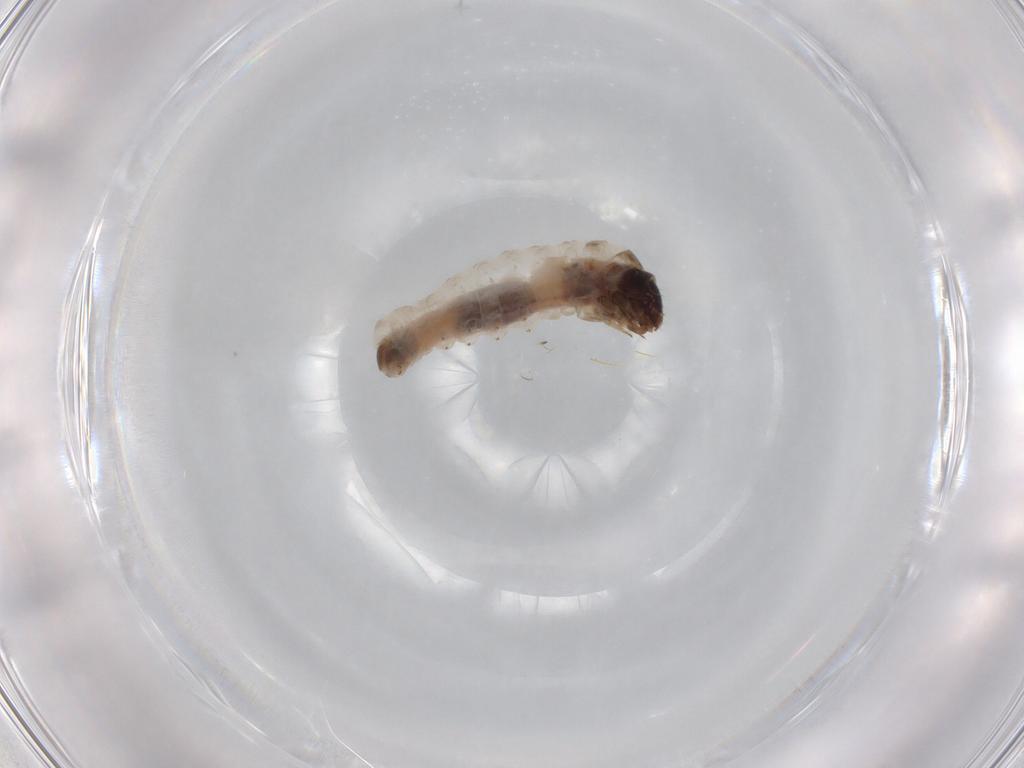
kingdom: Animalia
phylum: Arthropoda
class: Insecta
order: Lepidoptera
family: Psychidae
